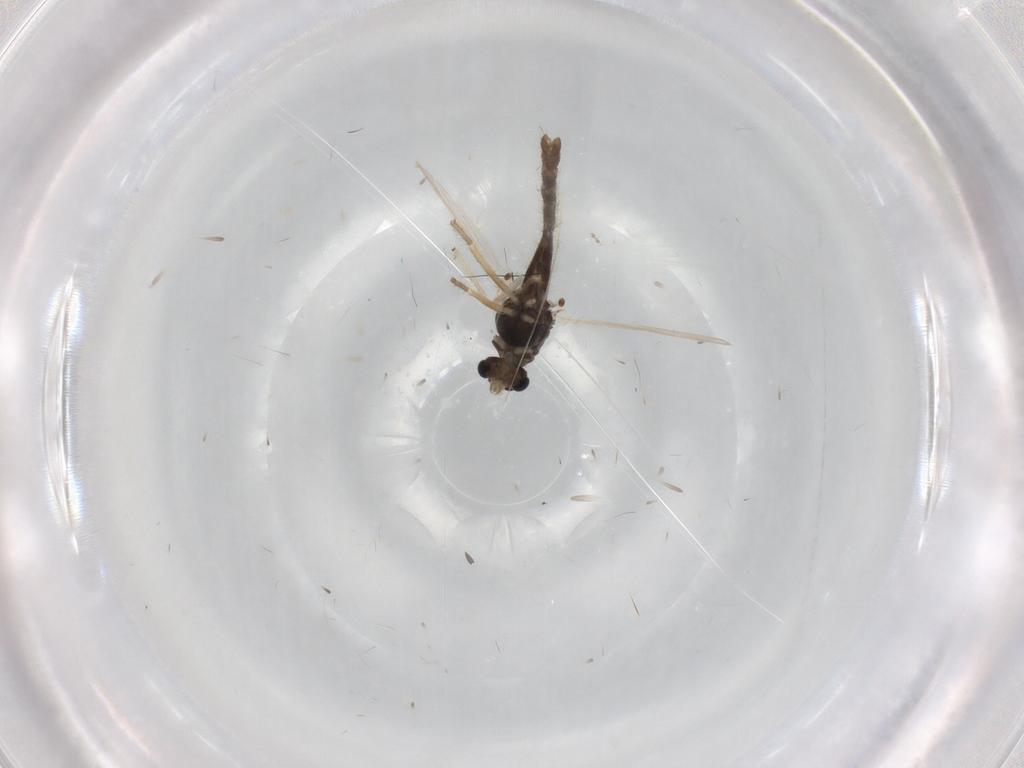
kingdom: Animalia
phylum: Arthropoda
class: Insecta
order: Diptera
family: Chironomidae
